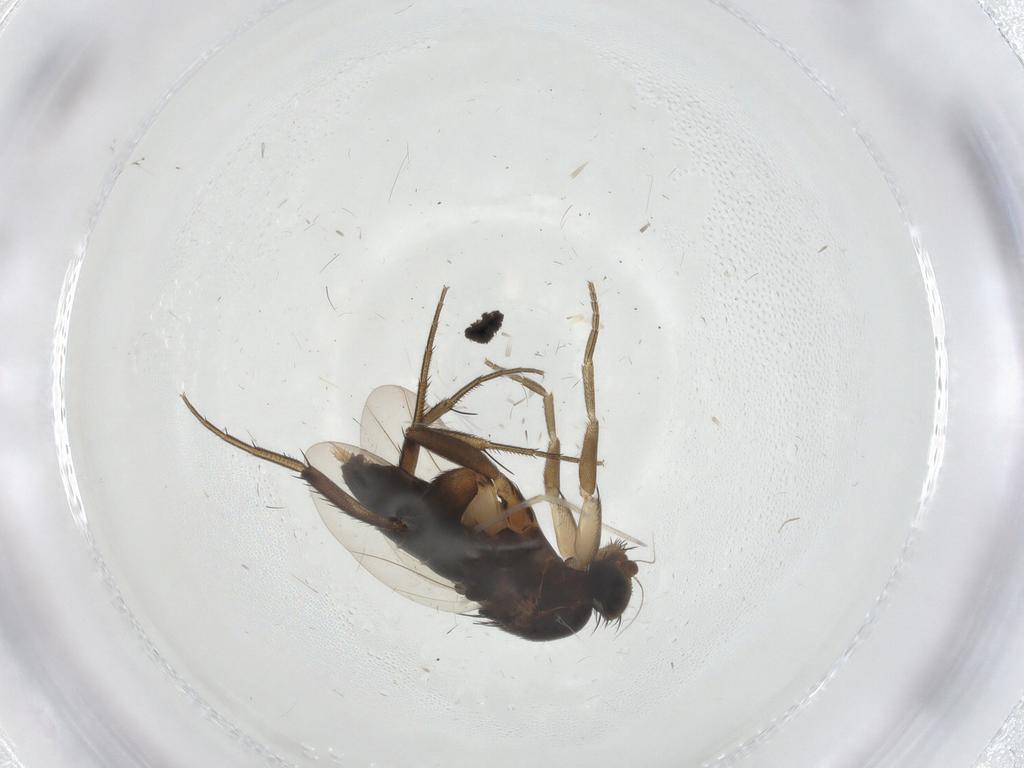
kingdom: Animalia
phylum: Arthropoda
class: Insecta
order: Diptera
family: Phoridae
